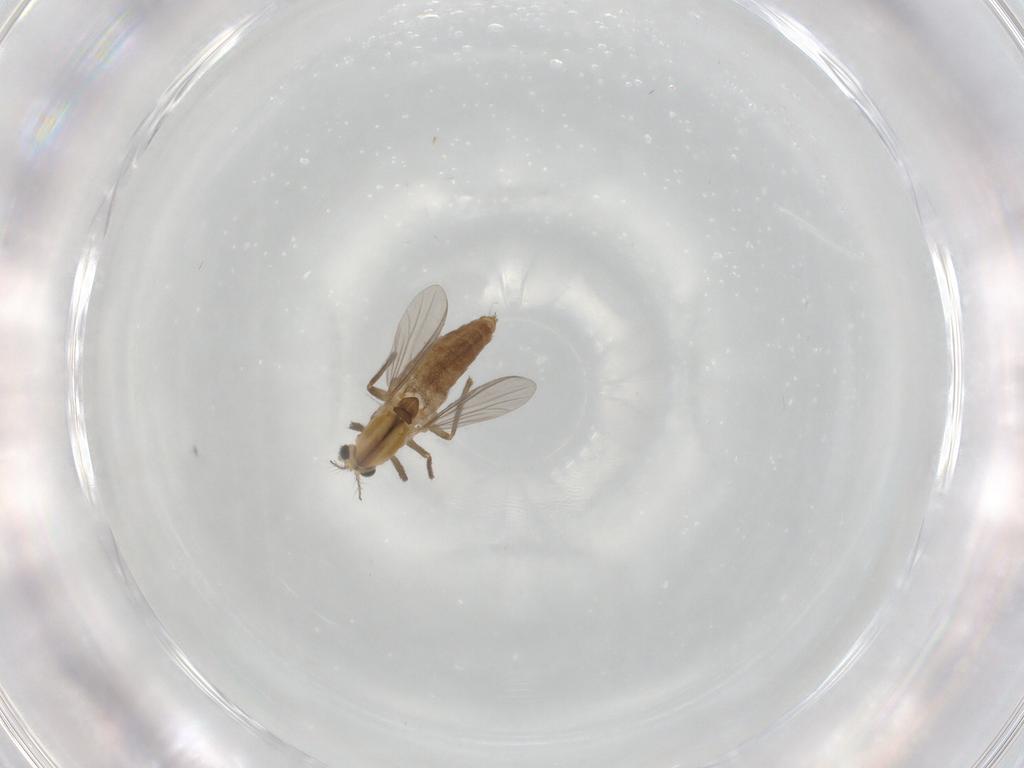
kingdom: Animalia
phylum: Arthropoda
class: Insecta
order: Diptera
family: Chironomidae
